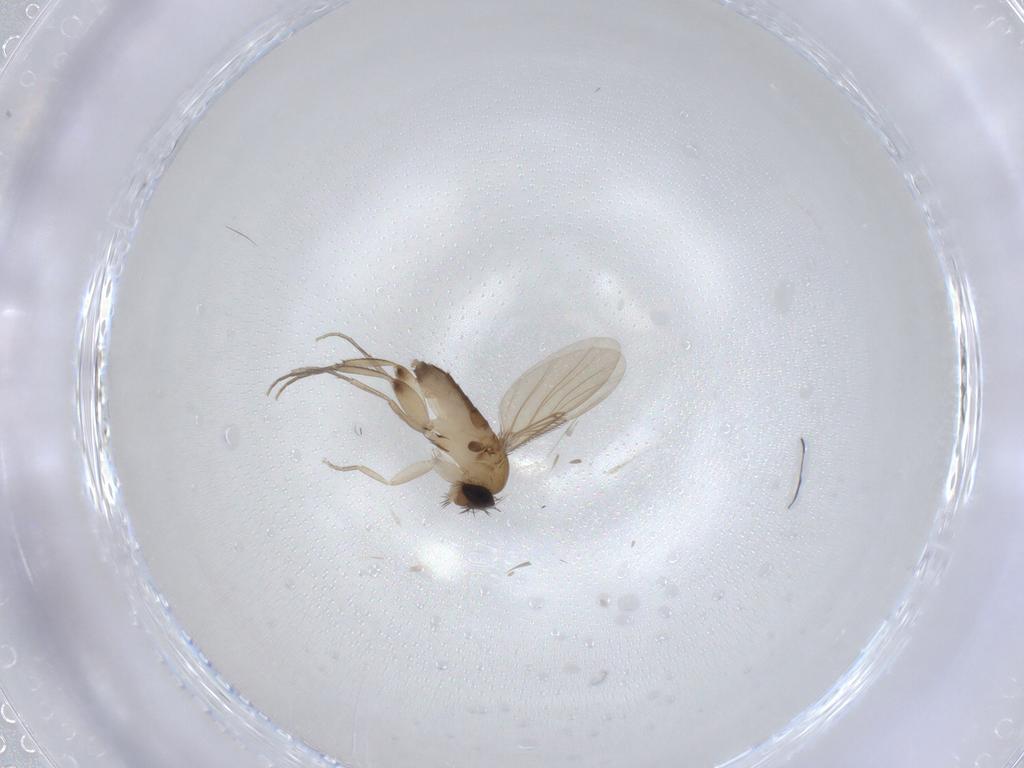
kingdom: Animalia
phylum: Arthropoda
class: Insecta
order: Diptera
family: Phoridae
